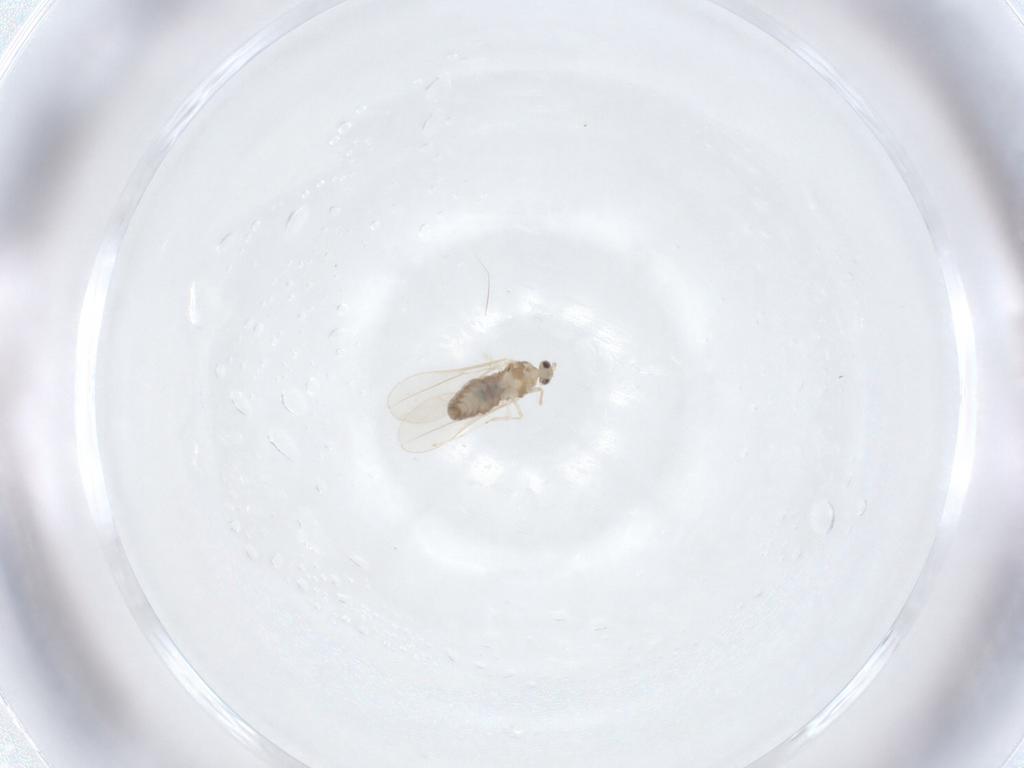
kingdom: Animalia
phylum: Arthropoda
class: Insecta
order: Diptera
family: Cecidomyiidae
